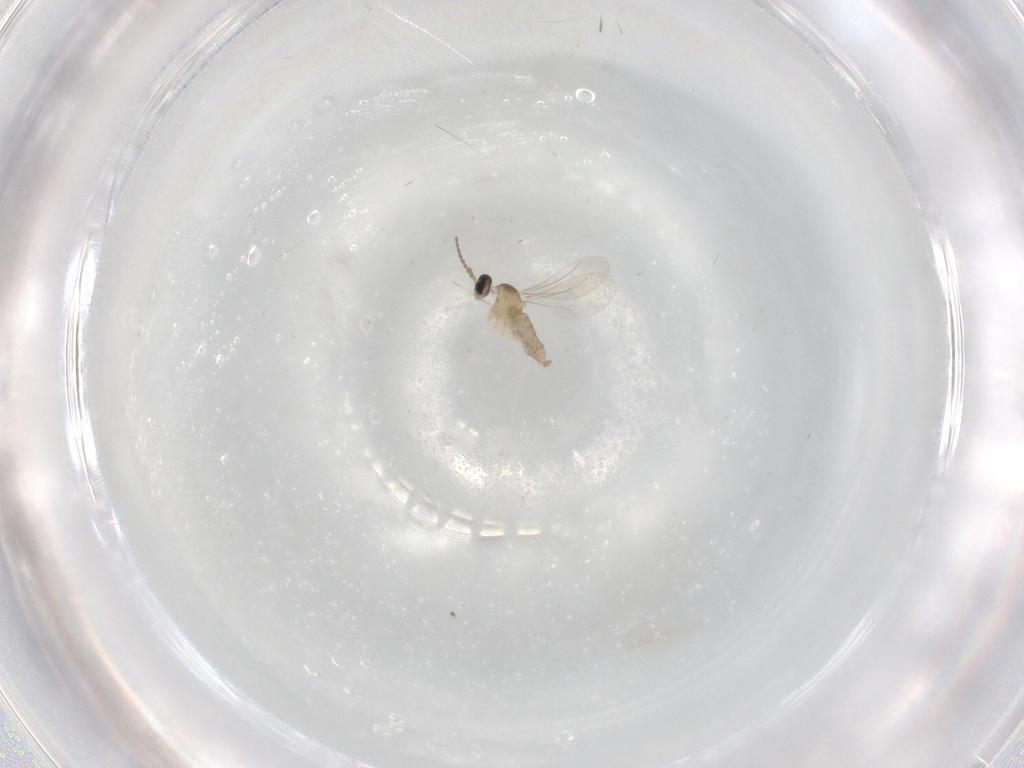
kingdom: Animalia
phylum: Arthropoda
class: Insecta
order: Diptera
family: Cecidomyiidae
